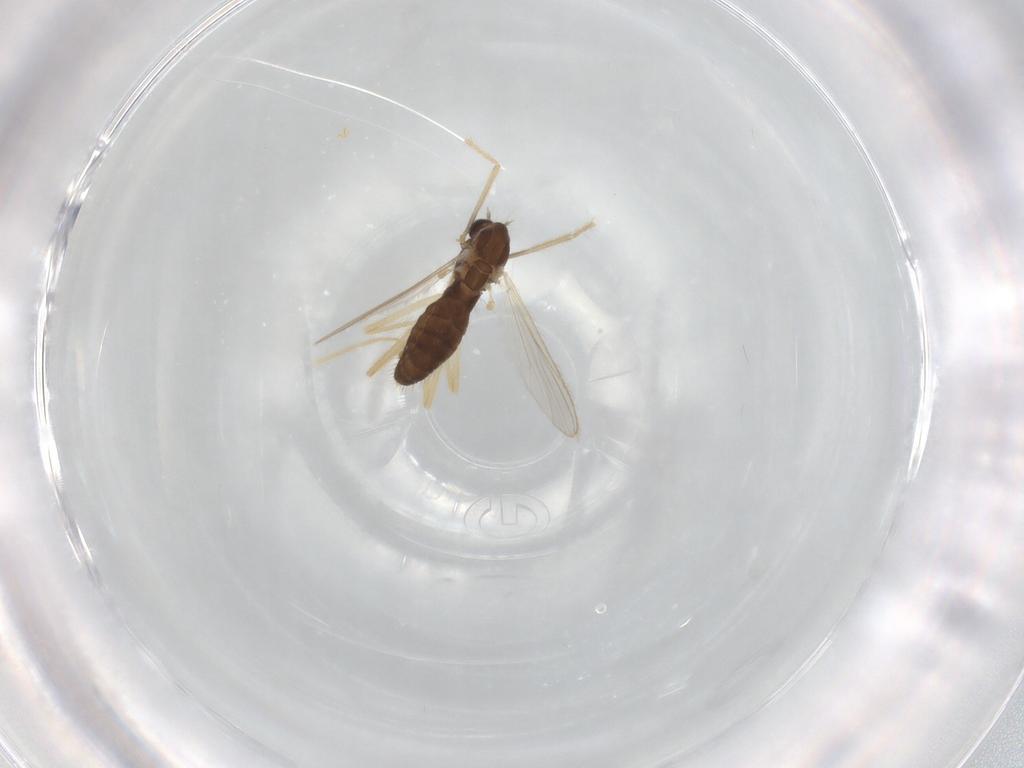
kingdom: Animalia
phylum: Arthropoda
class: Insecta
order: Diptera
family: Chironomidae
